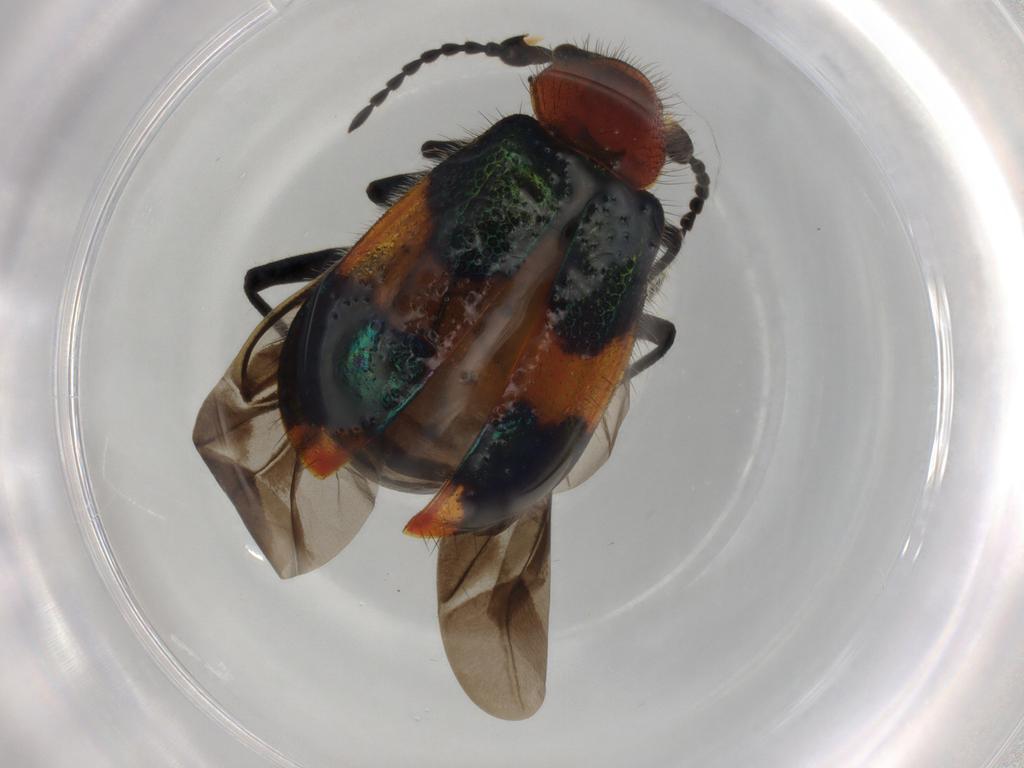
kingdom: Animalia
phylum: Arthropoda
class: Insecta
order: Coleoptera
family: Melyridae
